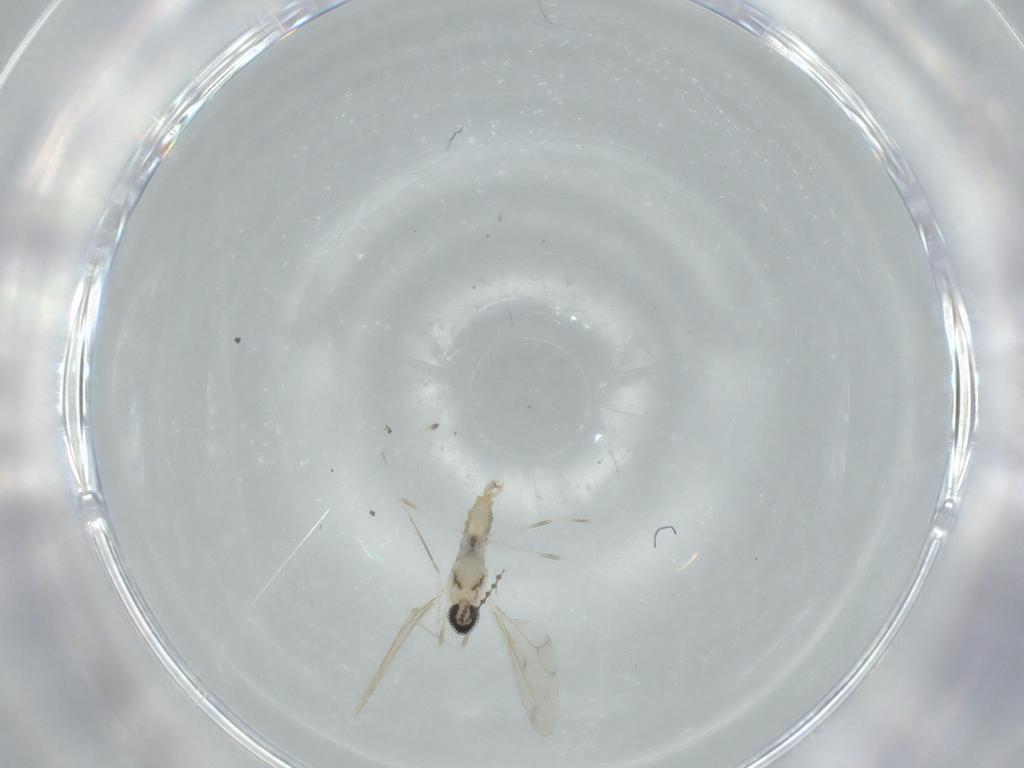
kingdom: Animalia
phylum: Arthropoda
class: Insecta
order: Diptera
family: Cecidomyiidae
